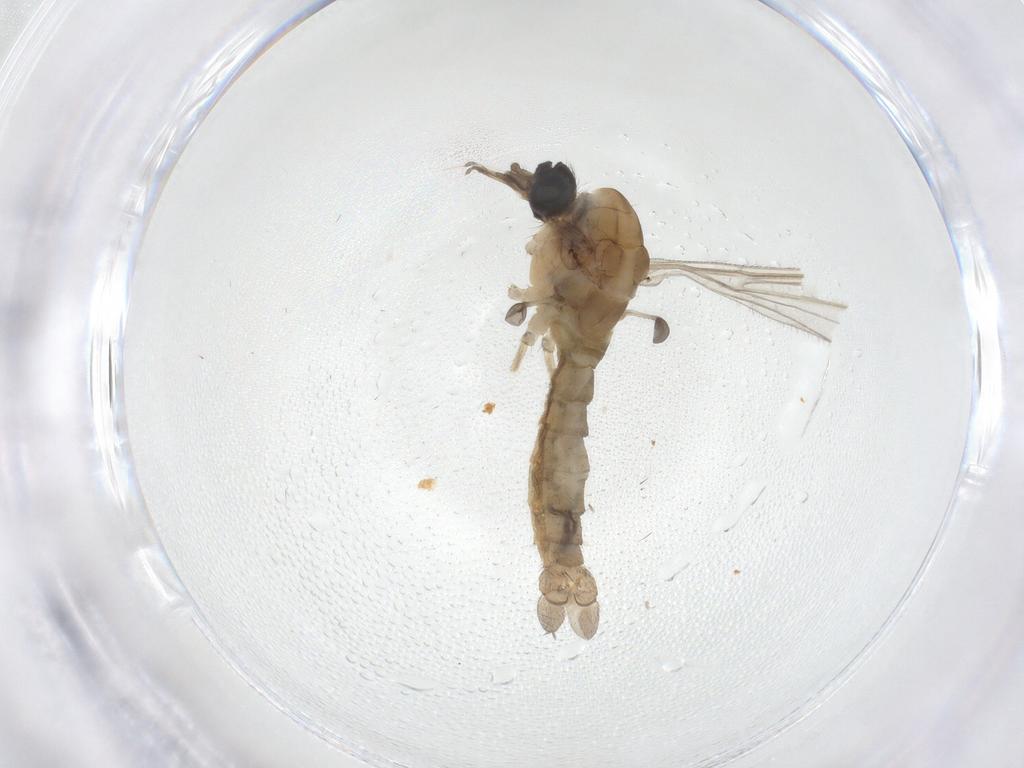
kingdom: Animalia
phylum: Arthropoda
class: Insecta
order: Diptera
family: Limoniidae
